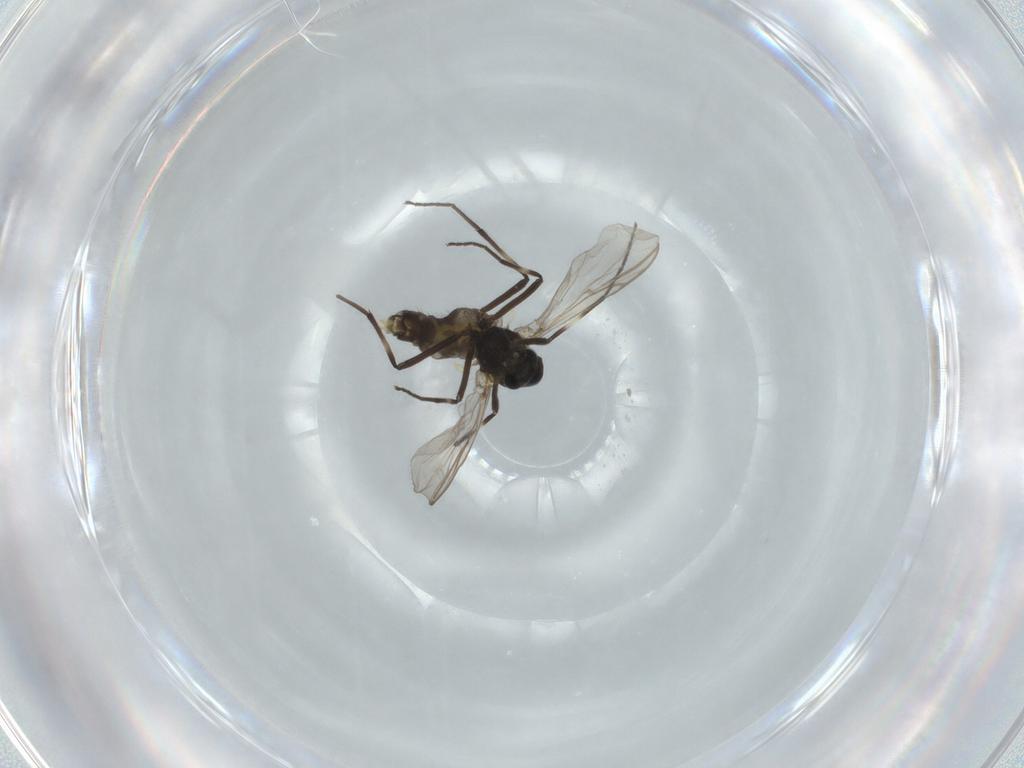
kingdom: Animalia
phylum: Arthropoda
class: Insecta
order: Diptera
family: Chironomidae
